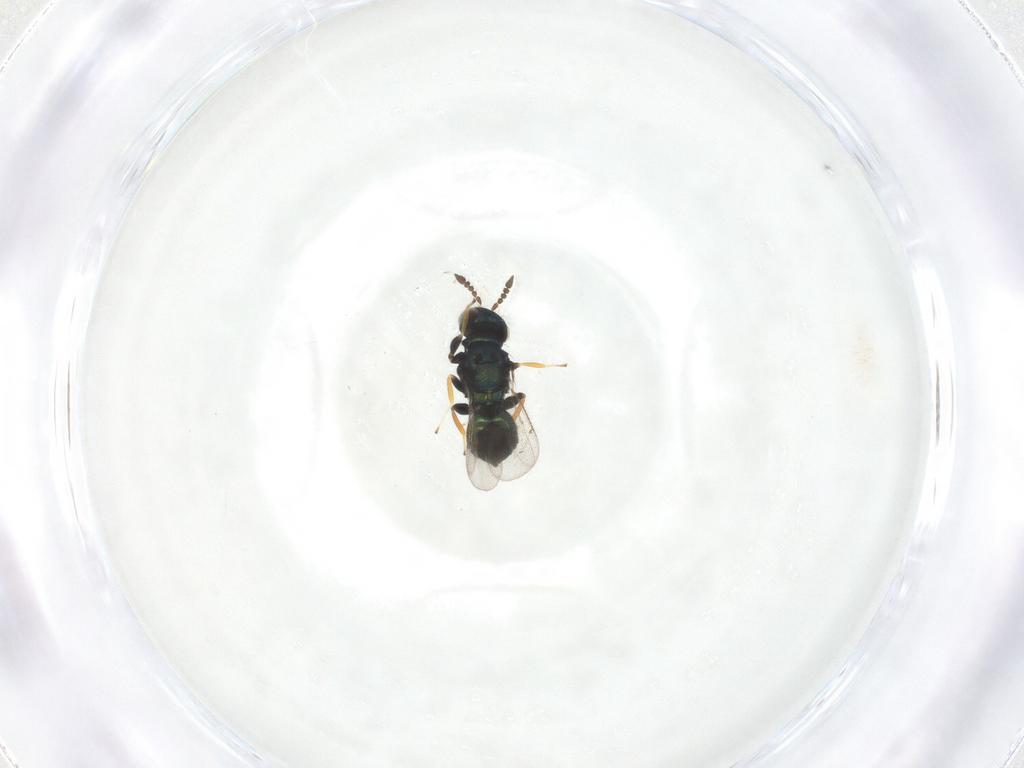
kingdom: Animalia
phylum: Arthropoda
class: Insecta
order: Hymenoptera
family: Eulophidae
